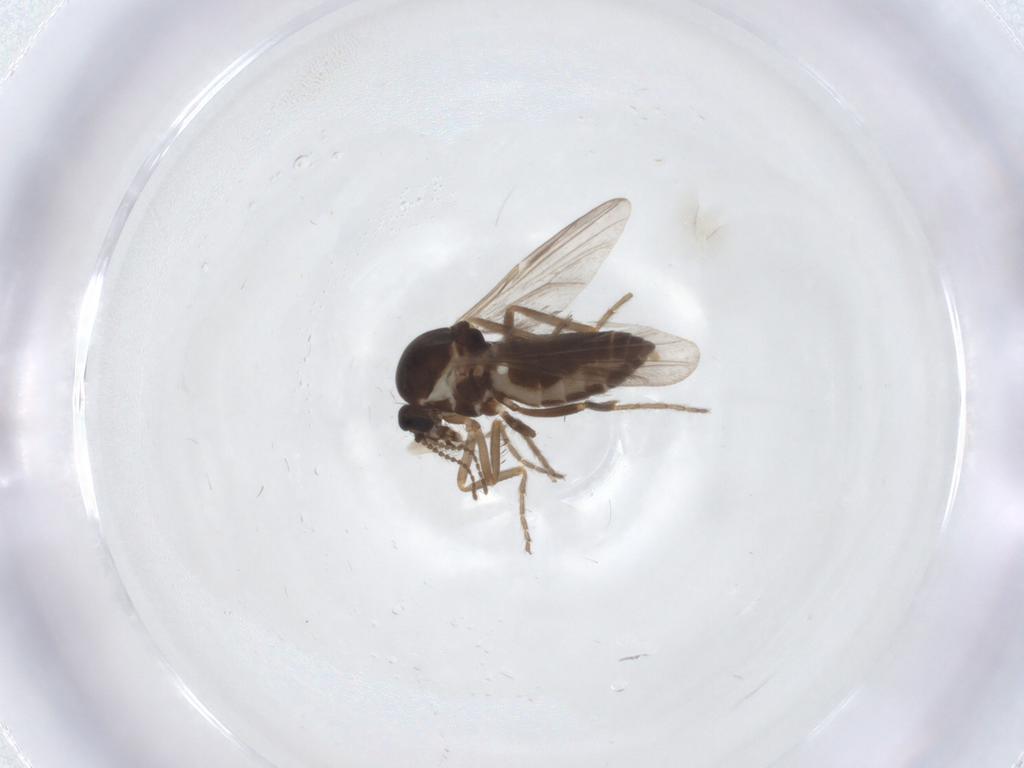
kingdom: Animalia
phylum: Arthropoda
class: Insecta
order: Diptera
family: Ceratopogonidae
